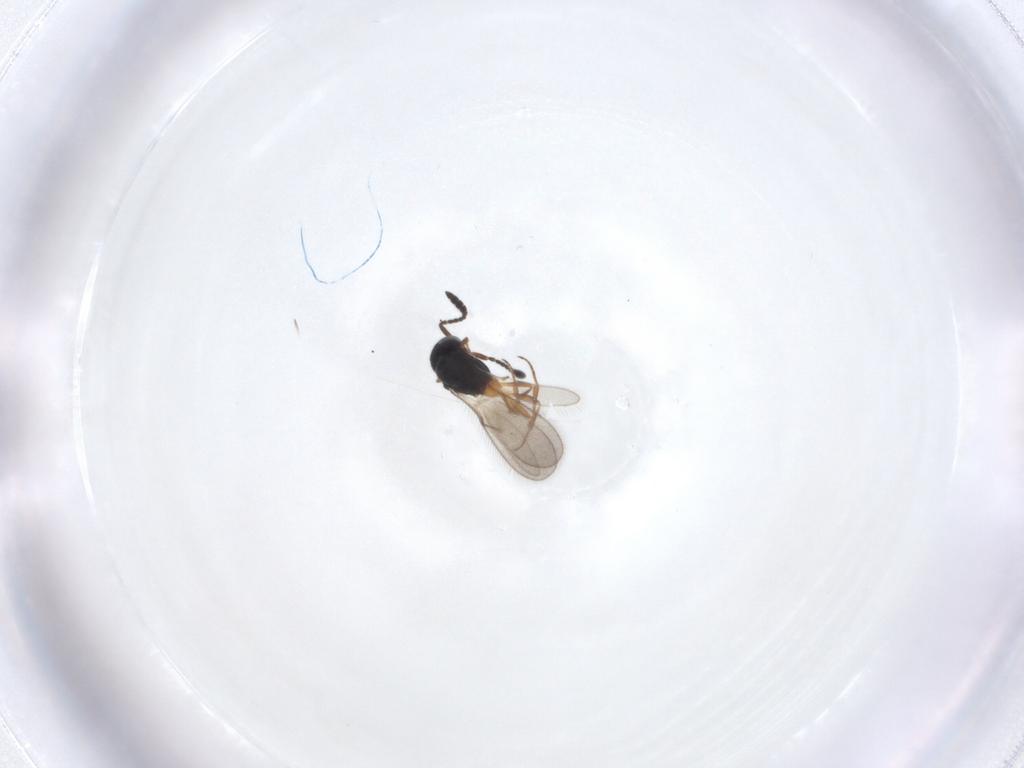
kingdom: Animalia
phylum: Arthropoda
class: Insecta
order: Hymenoptera
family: Scelionidae
